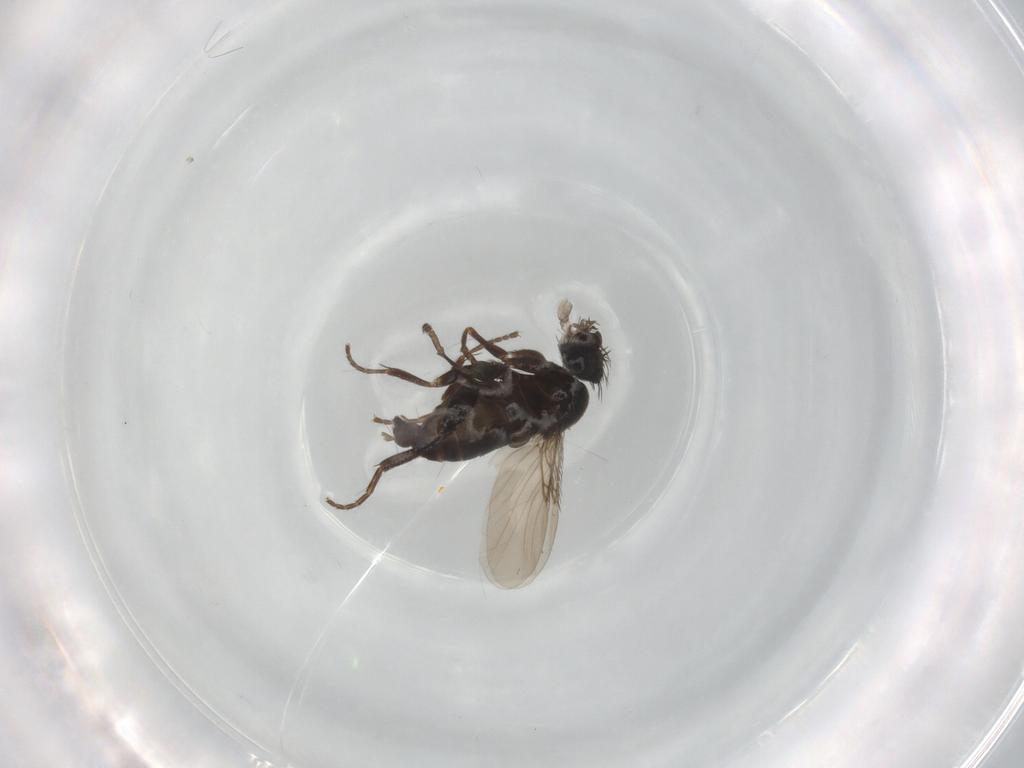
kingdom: Animalia
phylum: Arthropoda
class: Insecta
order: Diptera
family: Phoridae
